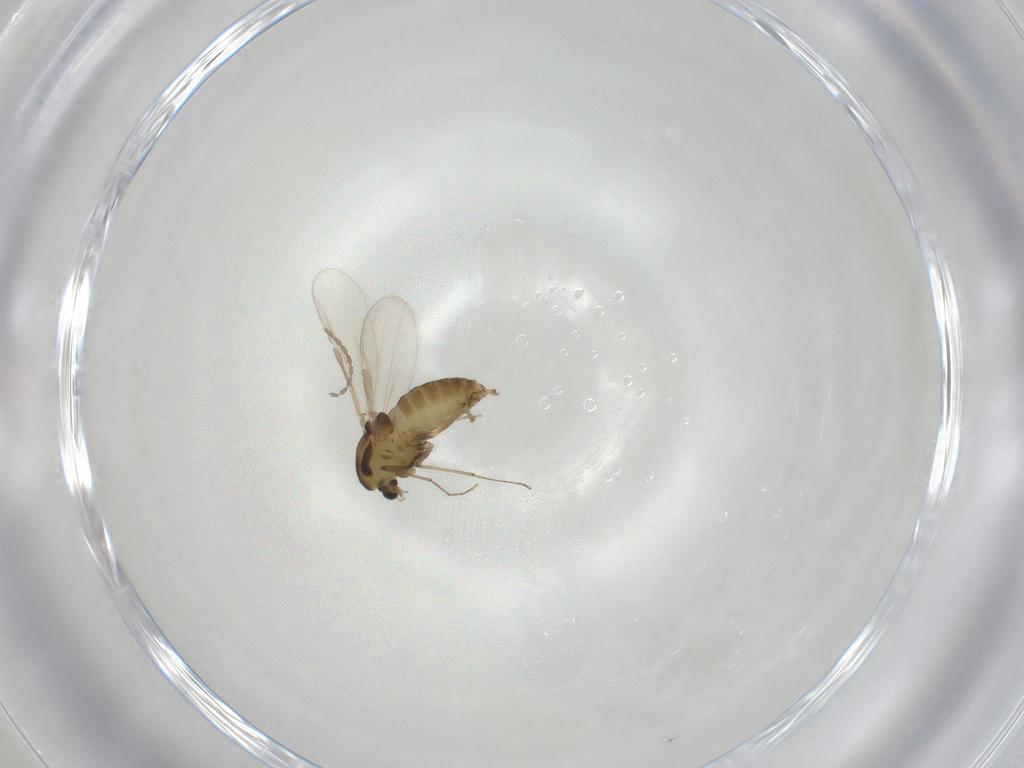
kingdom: Animalia
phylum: Arthropoda
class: Insecta
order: Diptera
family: Chironomidae
